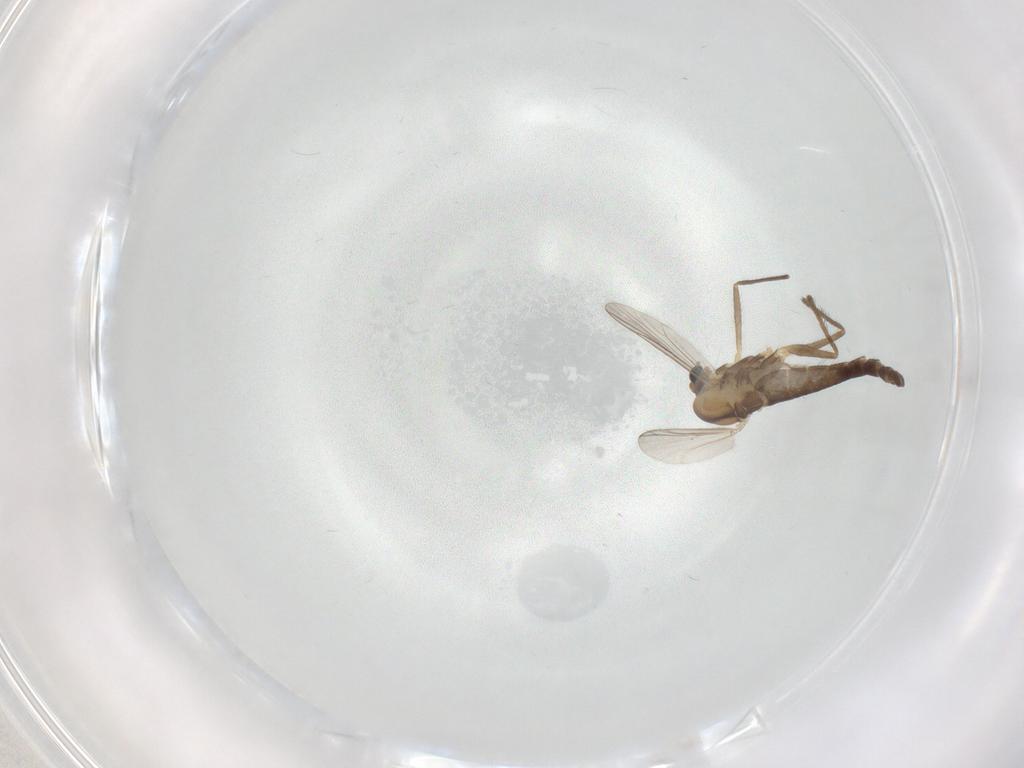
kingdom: Animalia
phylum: Arthropoda
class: Insecta
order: Diptera
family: Chironomidae
